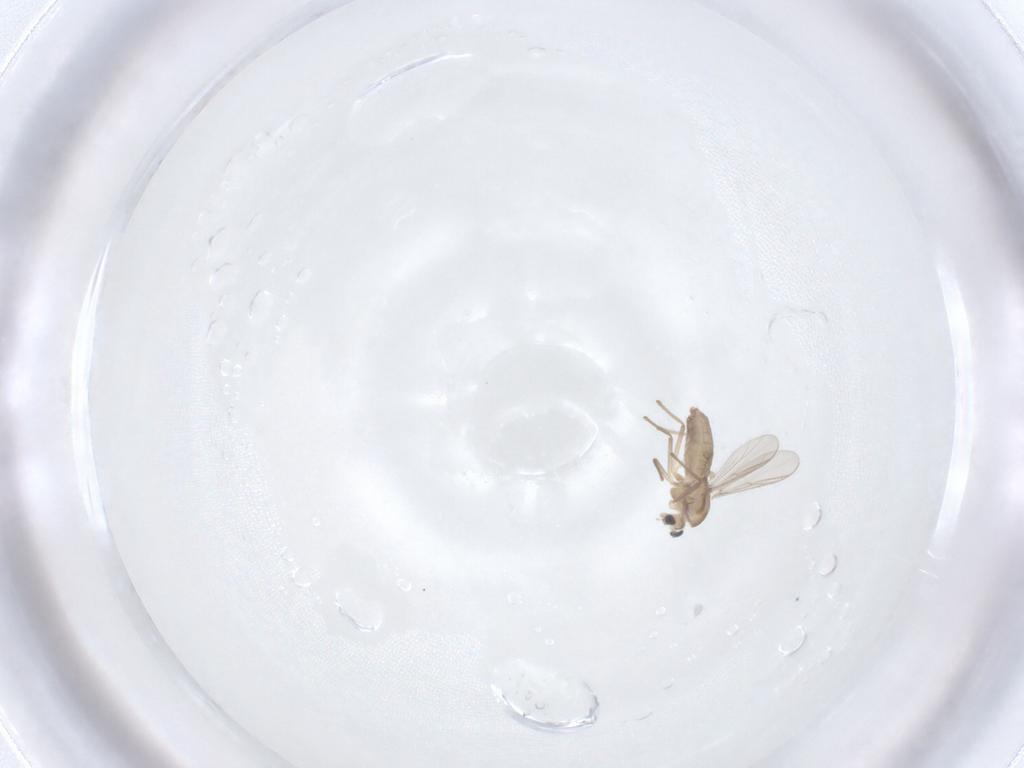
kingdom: Animalia
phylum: Arthropoda
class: Insecta
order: Diptera
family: Chironomidae
